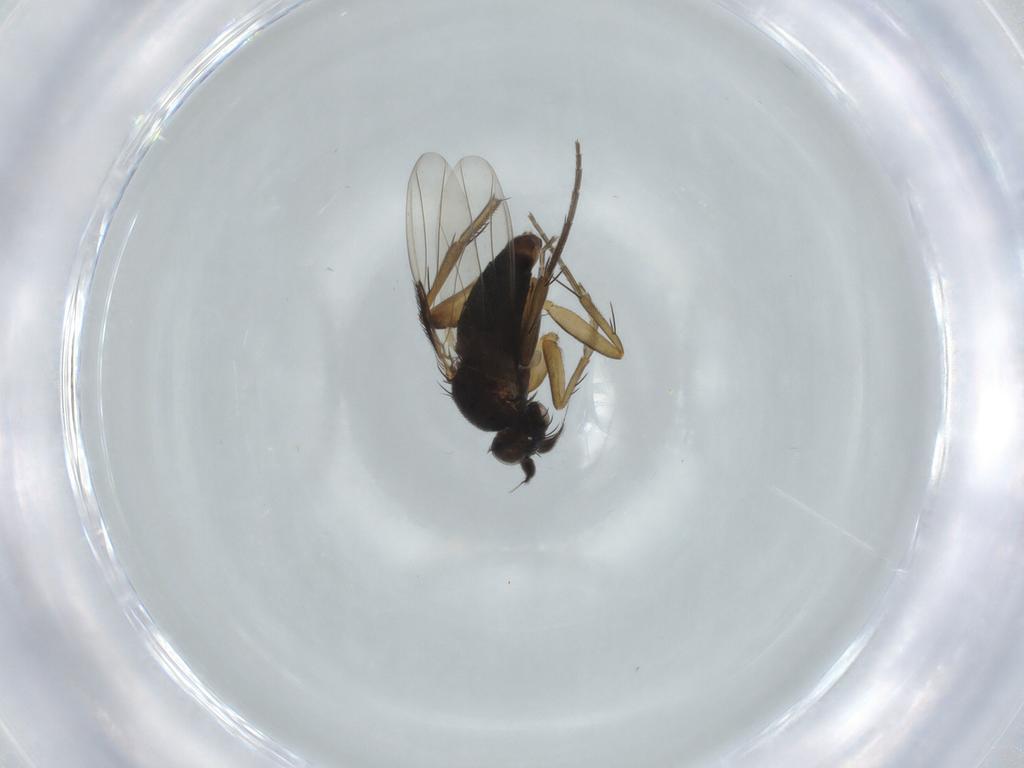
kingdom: Animalia
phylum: Arthropoda
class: Insecta
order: Diptera
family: Phoridae
